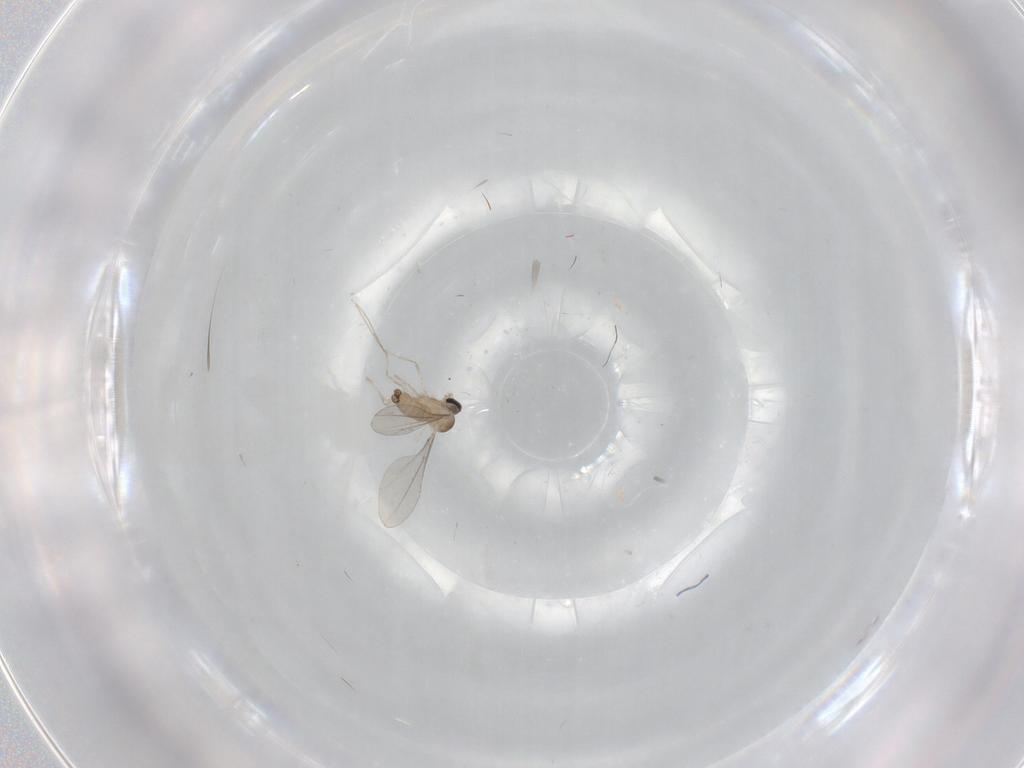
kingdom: Animalia
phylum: Arthropoda
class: Insecta
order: Diptera
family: Cecidomyiidae
